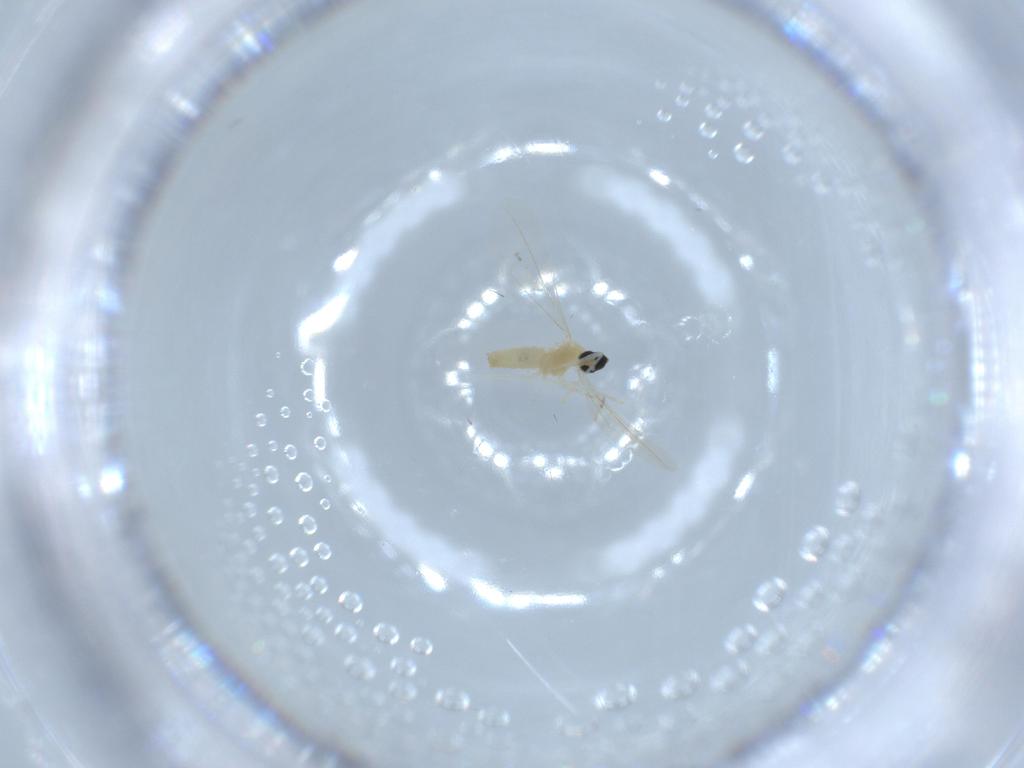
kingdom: Animalia
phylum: Arthropoda
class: Insecta
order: Diptera
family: Cecidomyiidae
